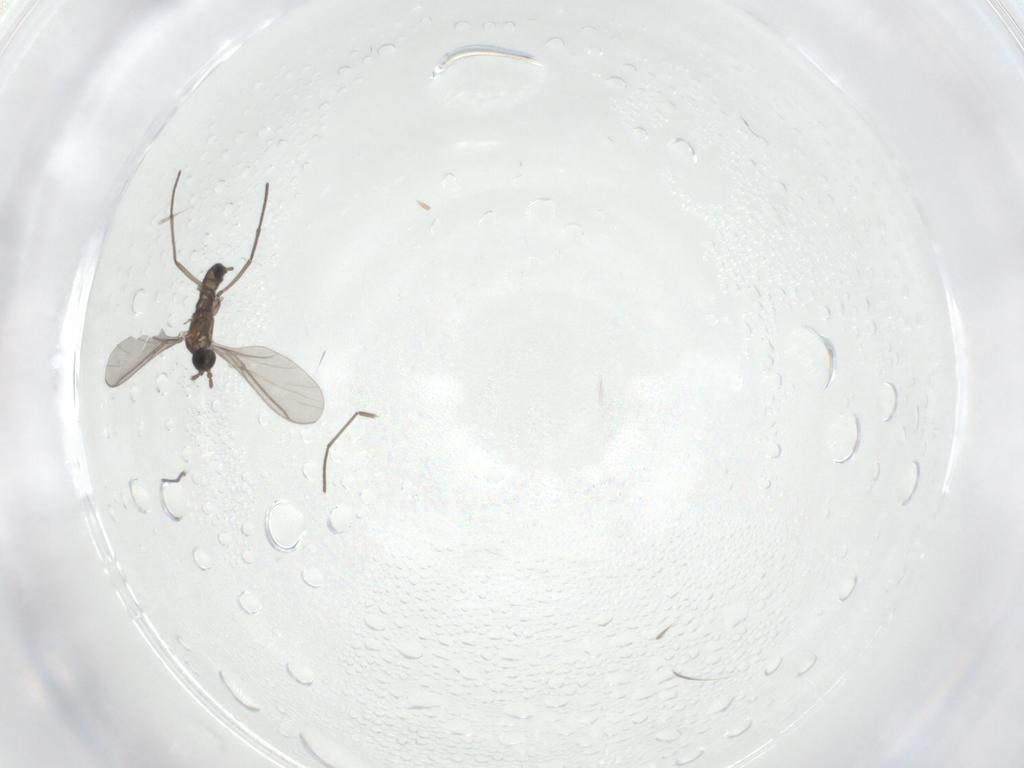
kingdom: Animalia
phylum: Arthropoda
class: Insecta
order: Diptera
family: Sciaridae
